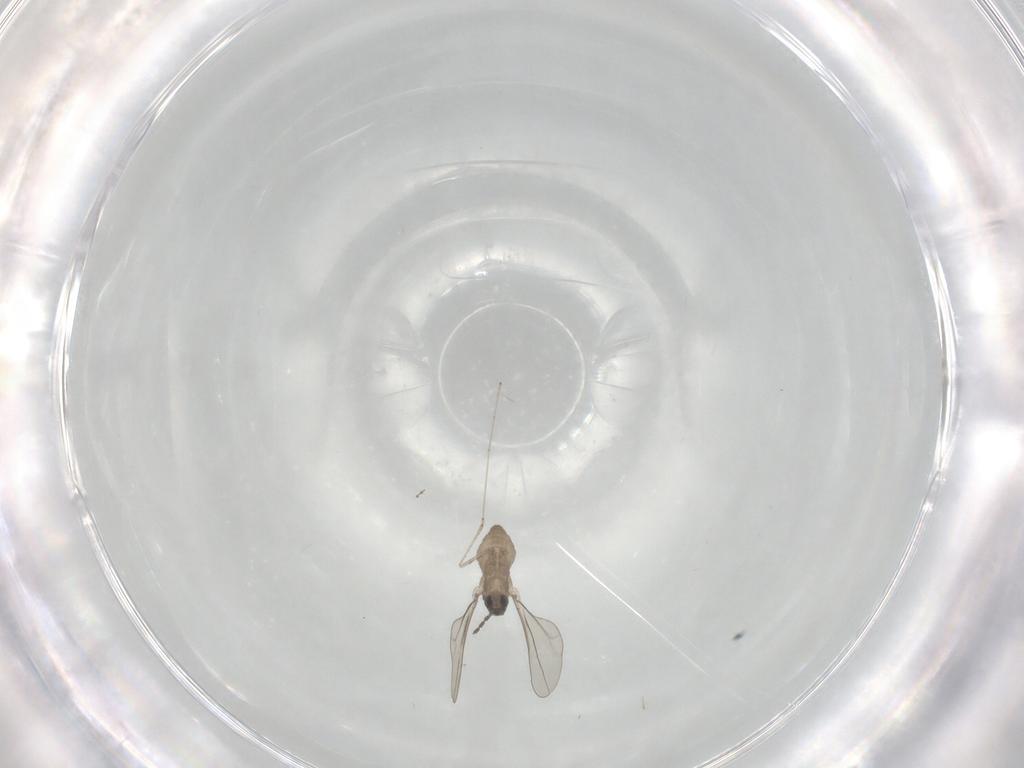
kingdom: Animalia
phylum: Arthropoda
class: Insecta
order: Diptera
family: Cecidomyiidae
